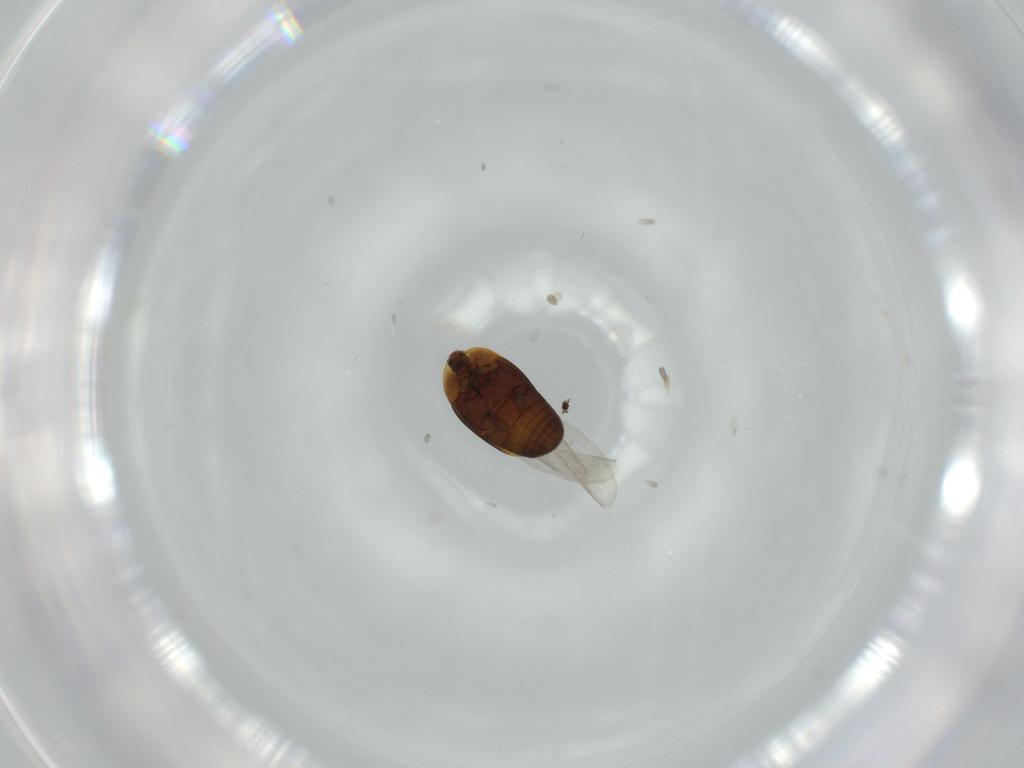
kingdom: Animalia
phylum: Arthropoda
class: Insecta
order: Coleoptera
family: Corylophidae
